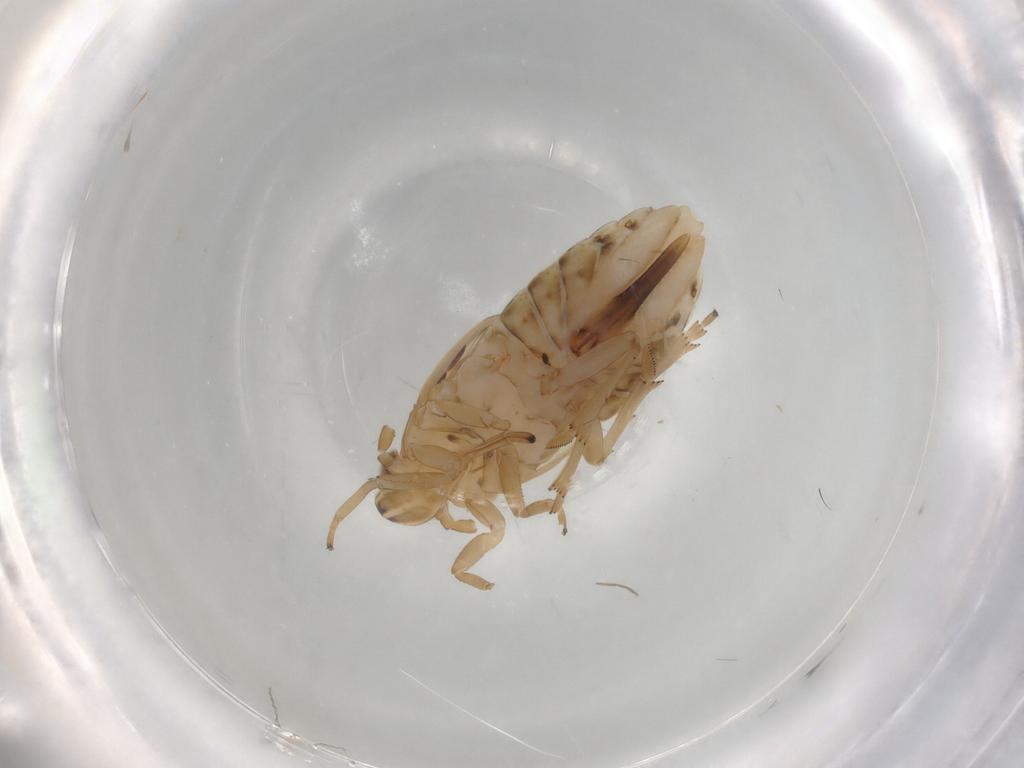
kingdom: Animalia
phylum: Arthropoda
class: Insecta
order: Hemiptera
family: Delphacidae
